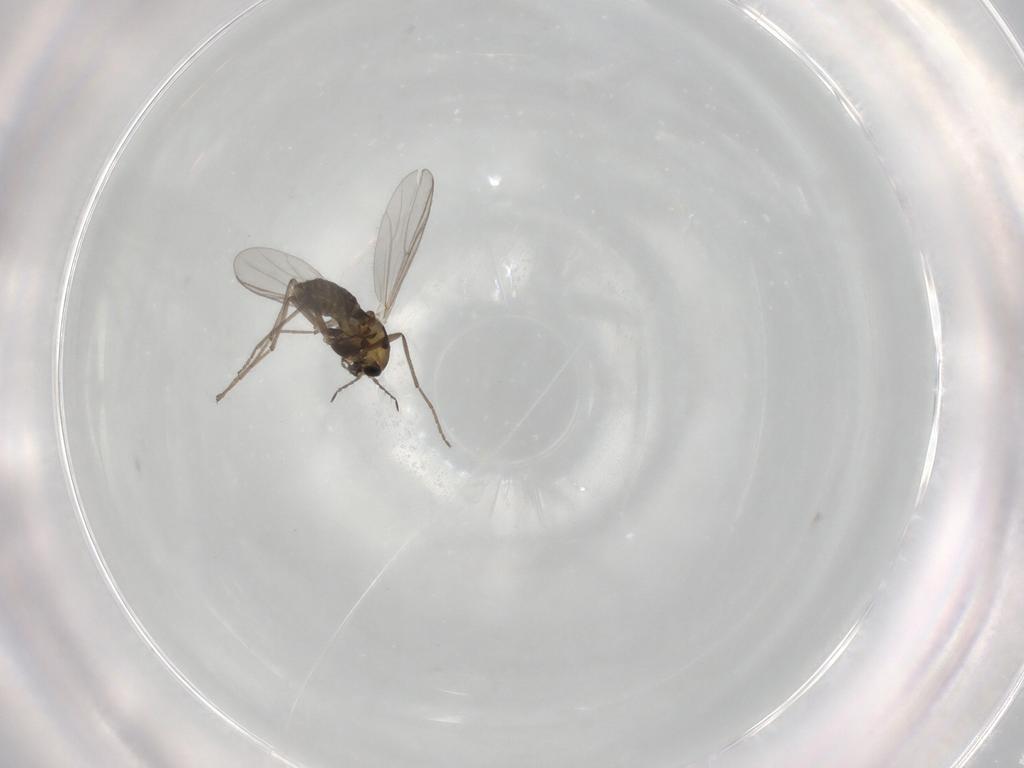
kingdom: Animalia
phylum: Arthropoda
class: Insecta
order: Diptera
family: Chironomidae
